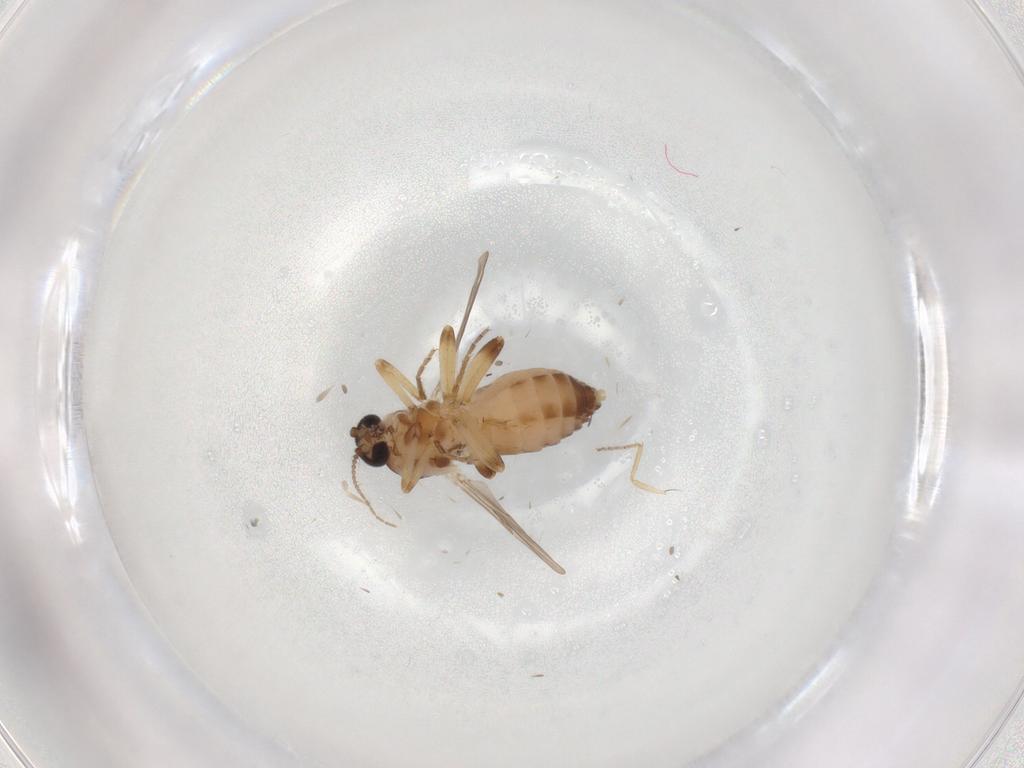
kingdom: Animalia
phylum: Arthropoda
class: Insecta
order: Diptera
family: Ceratopogonidae
